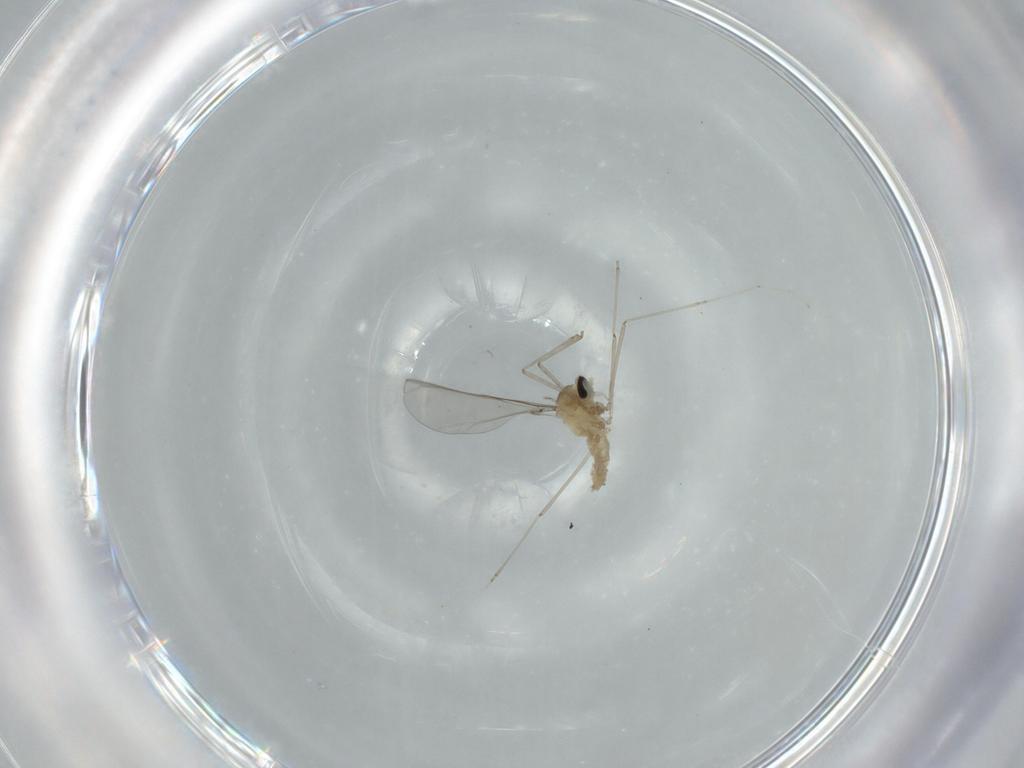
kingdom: Animalia
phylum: Arthropoda
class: Insecta
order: Diptera
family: Cecidomyiidae
